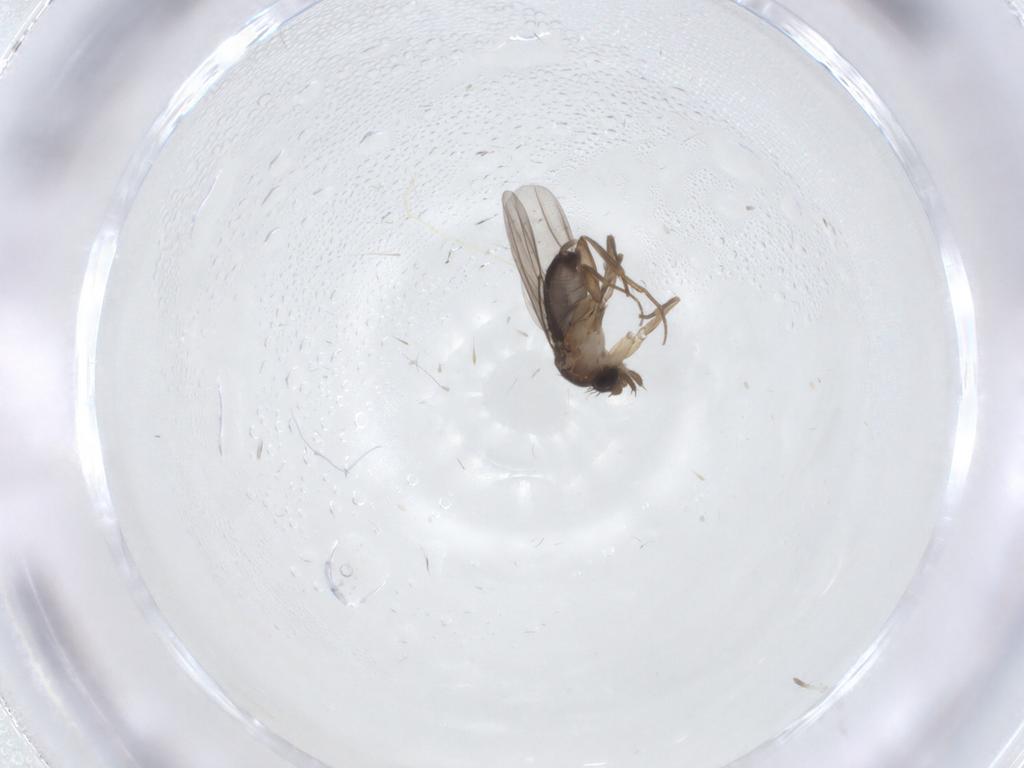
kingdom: Animalia
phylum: Arthropoda
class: Insecta
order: Diptera
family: Phoridae
